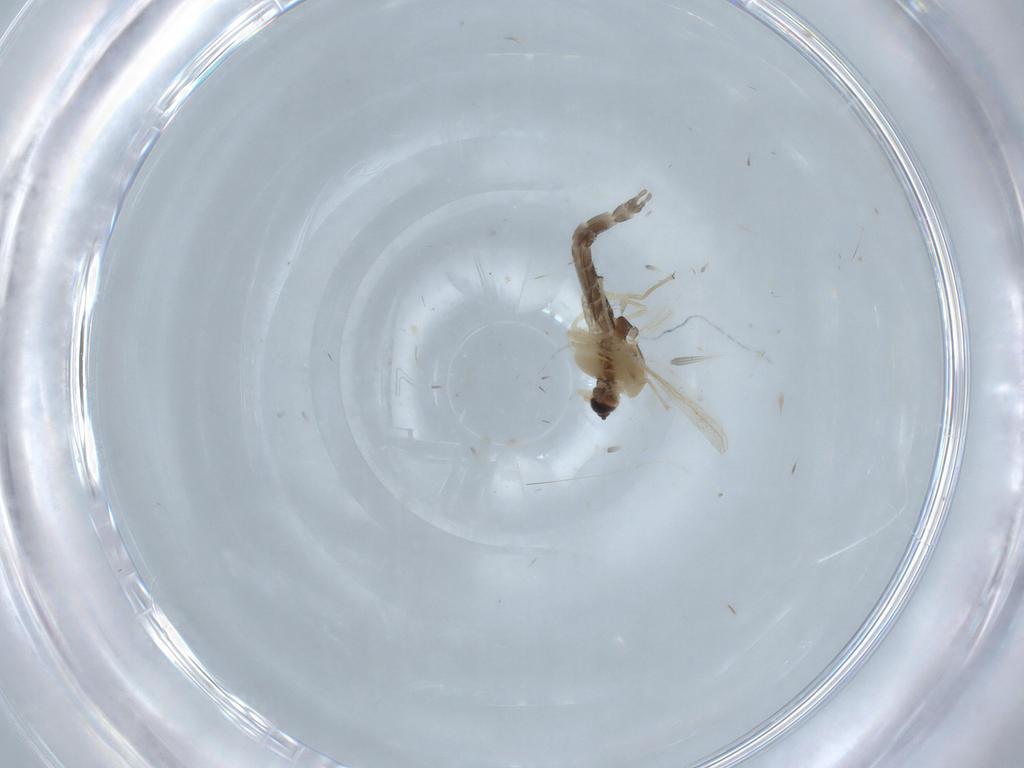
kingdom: Animalia
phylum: Arthropoda
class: Insecta
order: Diptera
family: Chironomidae
